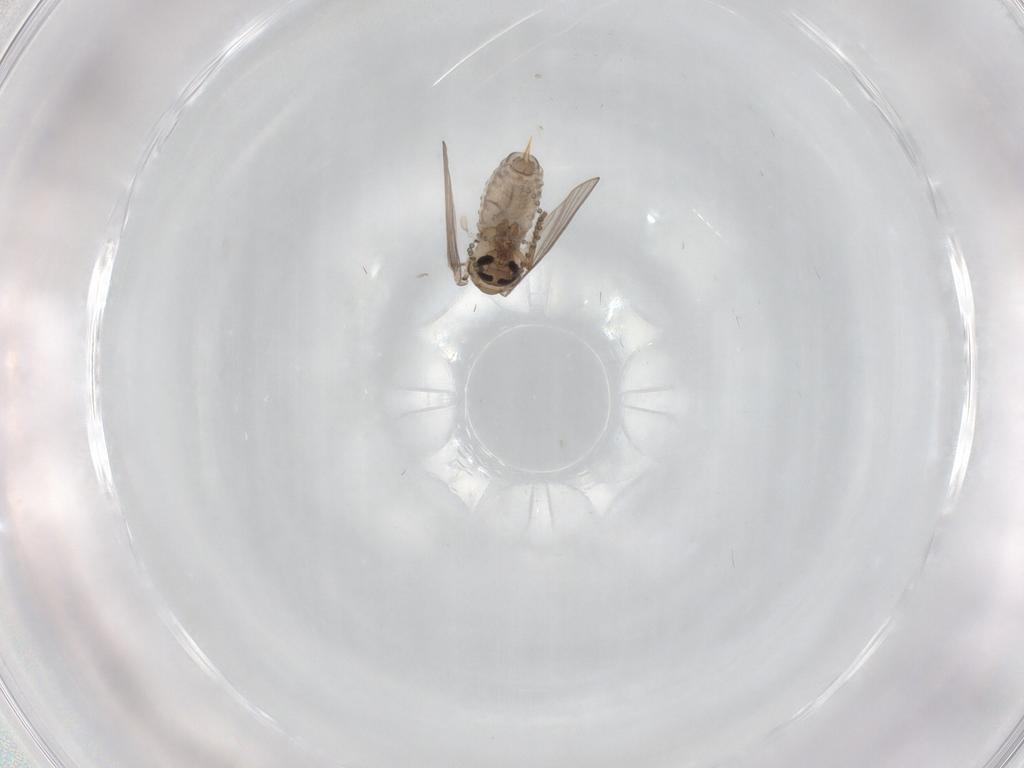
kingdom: Animalia
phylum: Arthropoda
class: Insecta
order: Diptera
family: Psychodidae
